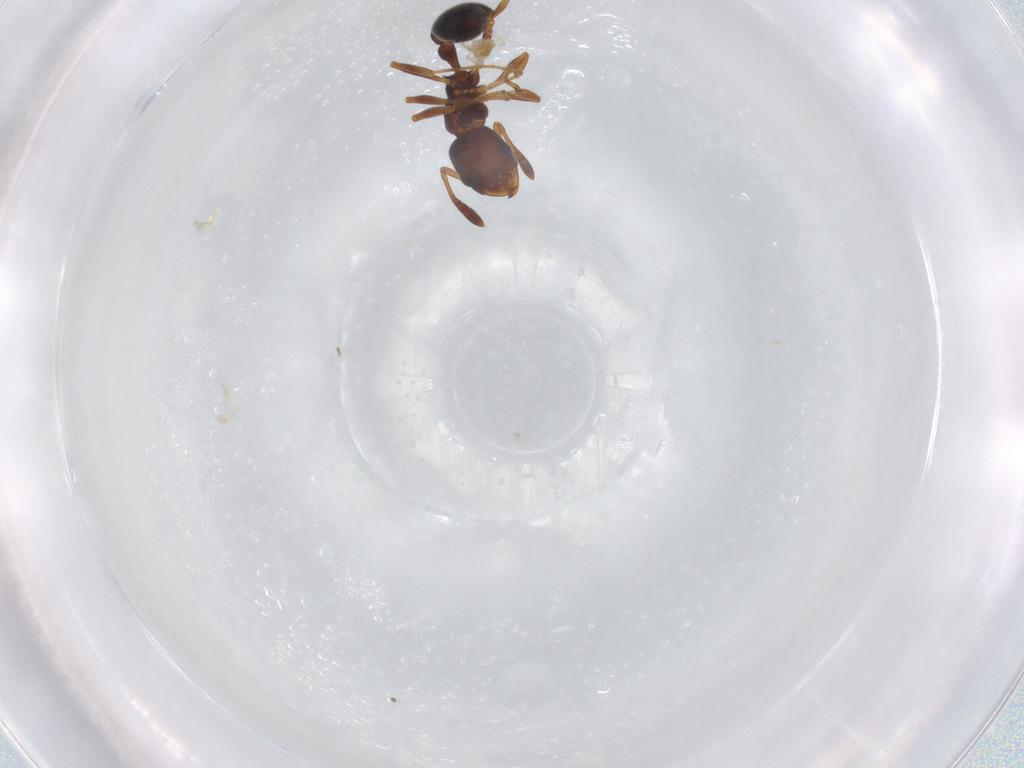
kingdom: Animalia
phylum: Arthropoda
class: Insecta
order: Hymenoptera
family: Formicidae
